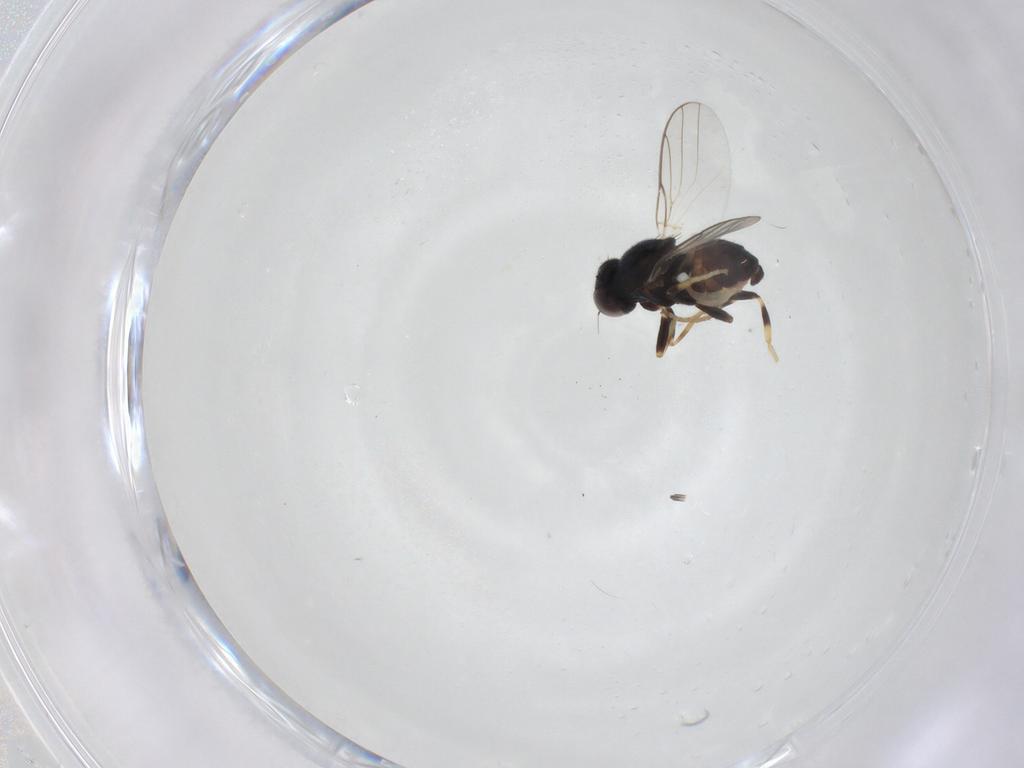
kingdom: Animalia
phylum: Arthropoda
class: Insecta
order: Diptera
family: Chloropidae
